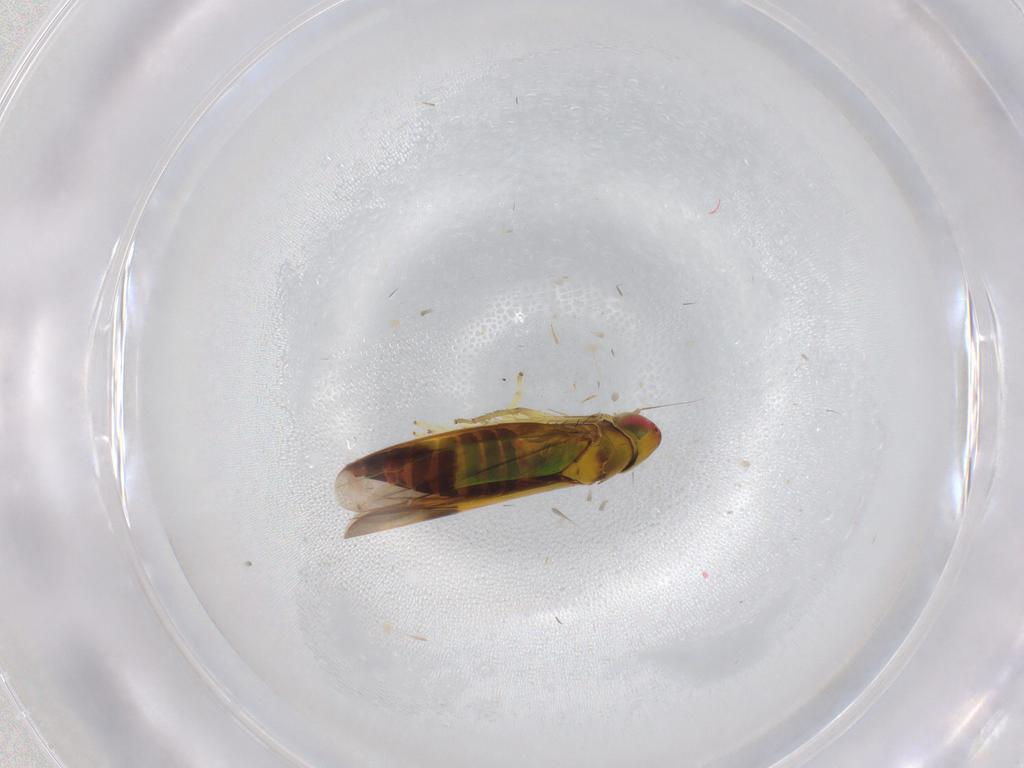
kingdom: Animalia
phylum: Arthropoda
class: Insecta
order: Hemiptera
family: Cicadellidae
